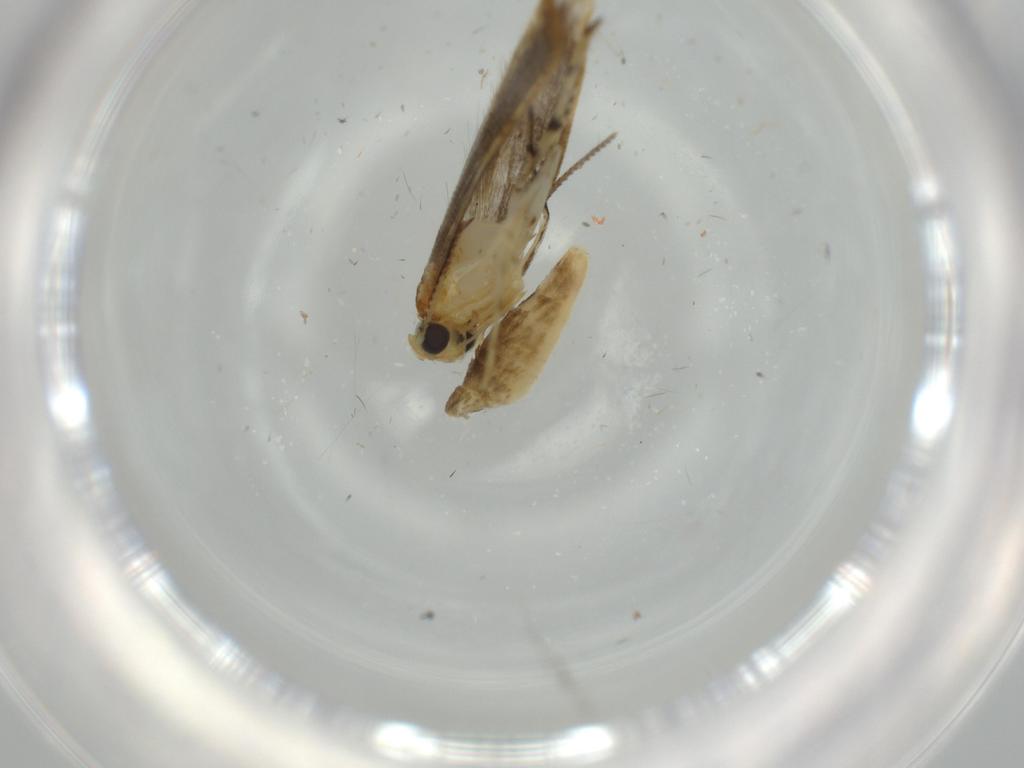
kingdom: Animalia
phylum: Arthropoda
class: Insecta
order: Lepidoptera
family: Argyresthiidae
